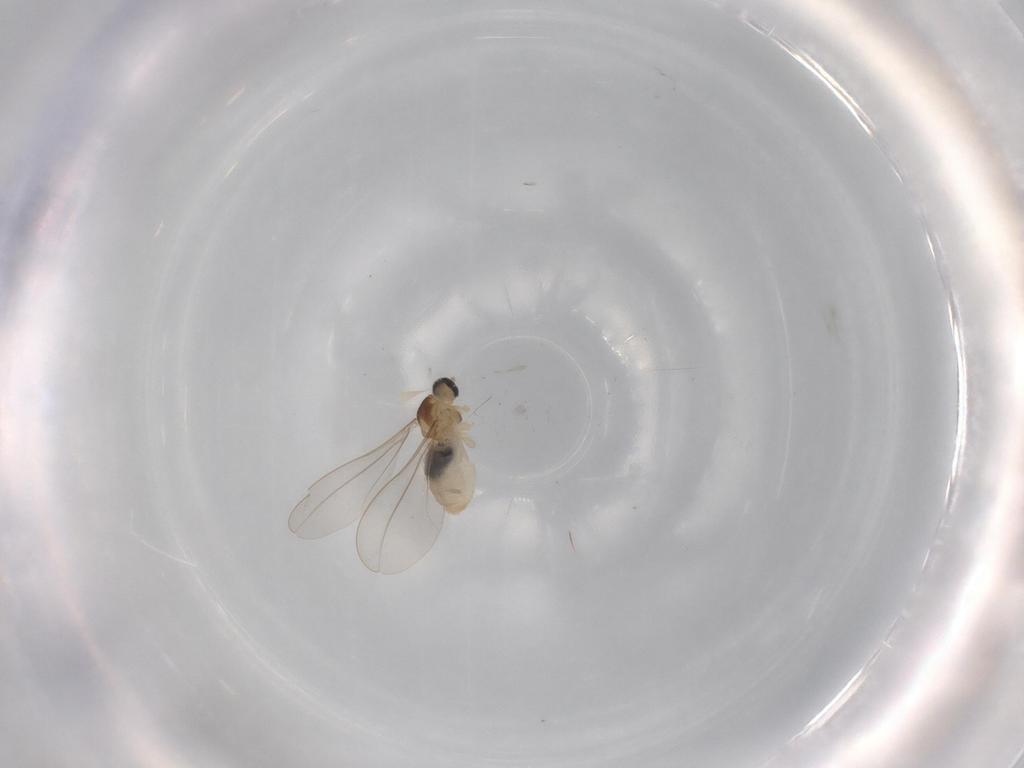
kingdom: Animalia
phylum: Arthropoda
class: Insecta
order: Diptera
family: Cecidomyiidae
